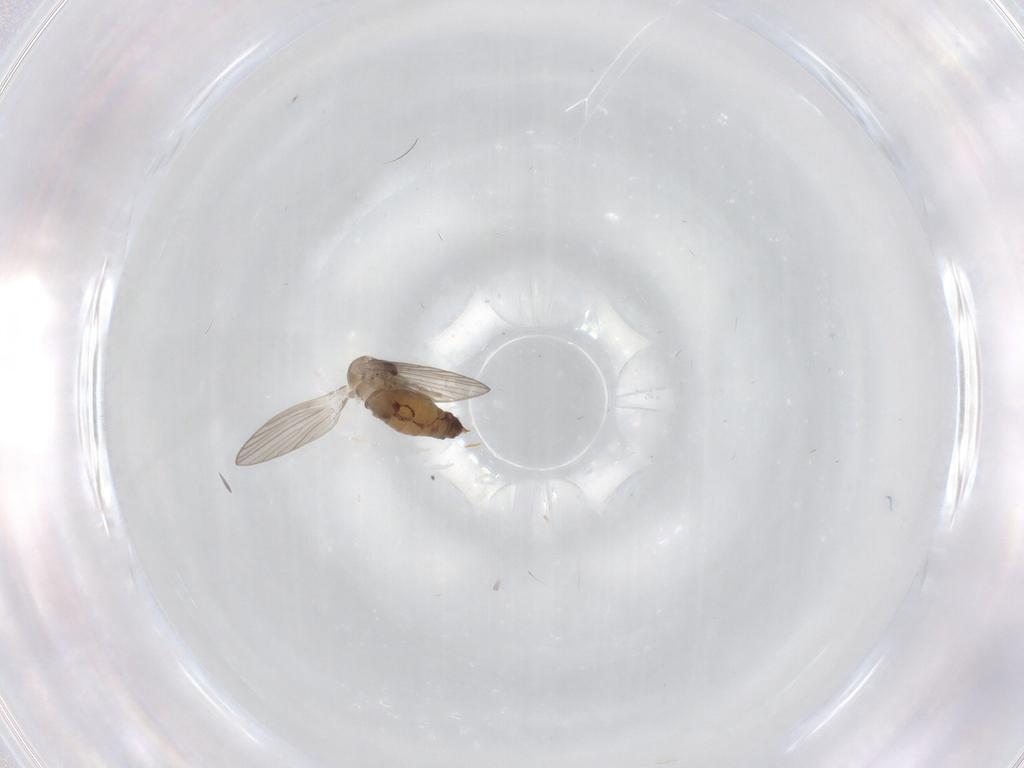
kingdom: Animalia
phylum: Arthropoda
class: Insecta
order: Diptera
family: Psychodidae
